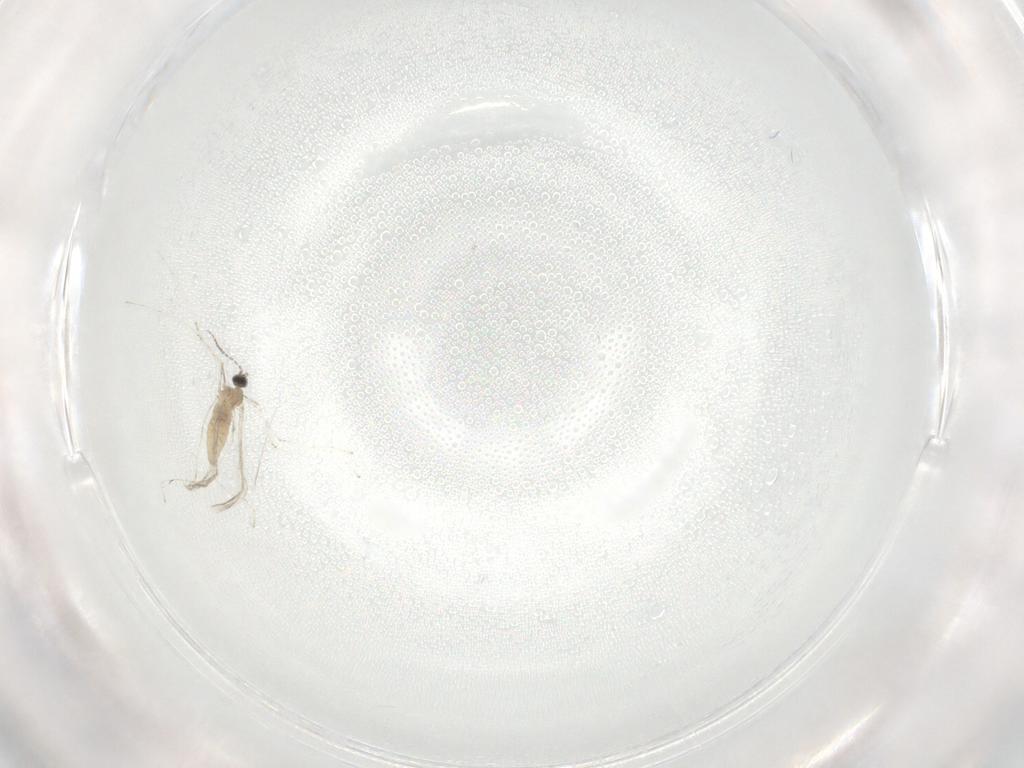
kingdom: Animalia
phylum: Arthropoda
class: Insecta
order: Diptera
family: Cecidomyiidae
